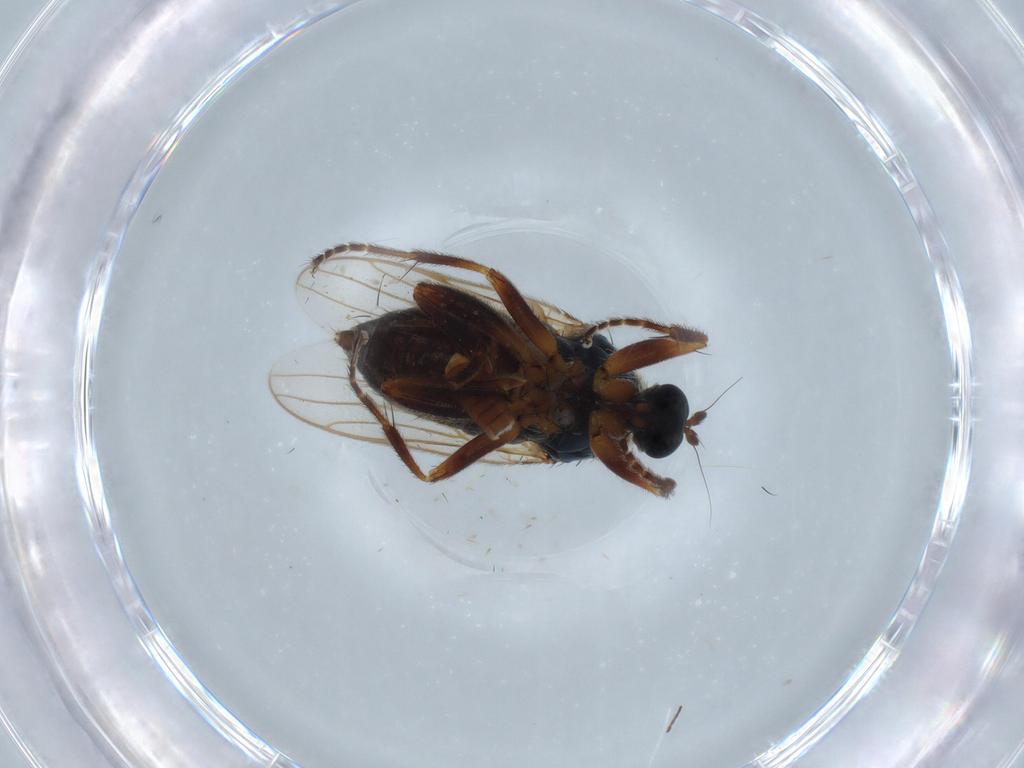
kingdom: Animalia
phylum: Arthropoda
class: Insecta
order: Diptera
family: Hybotidae
